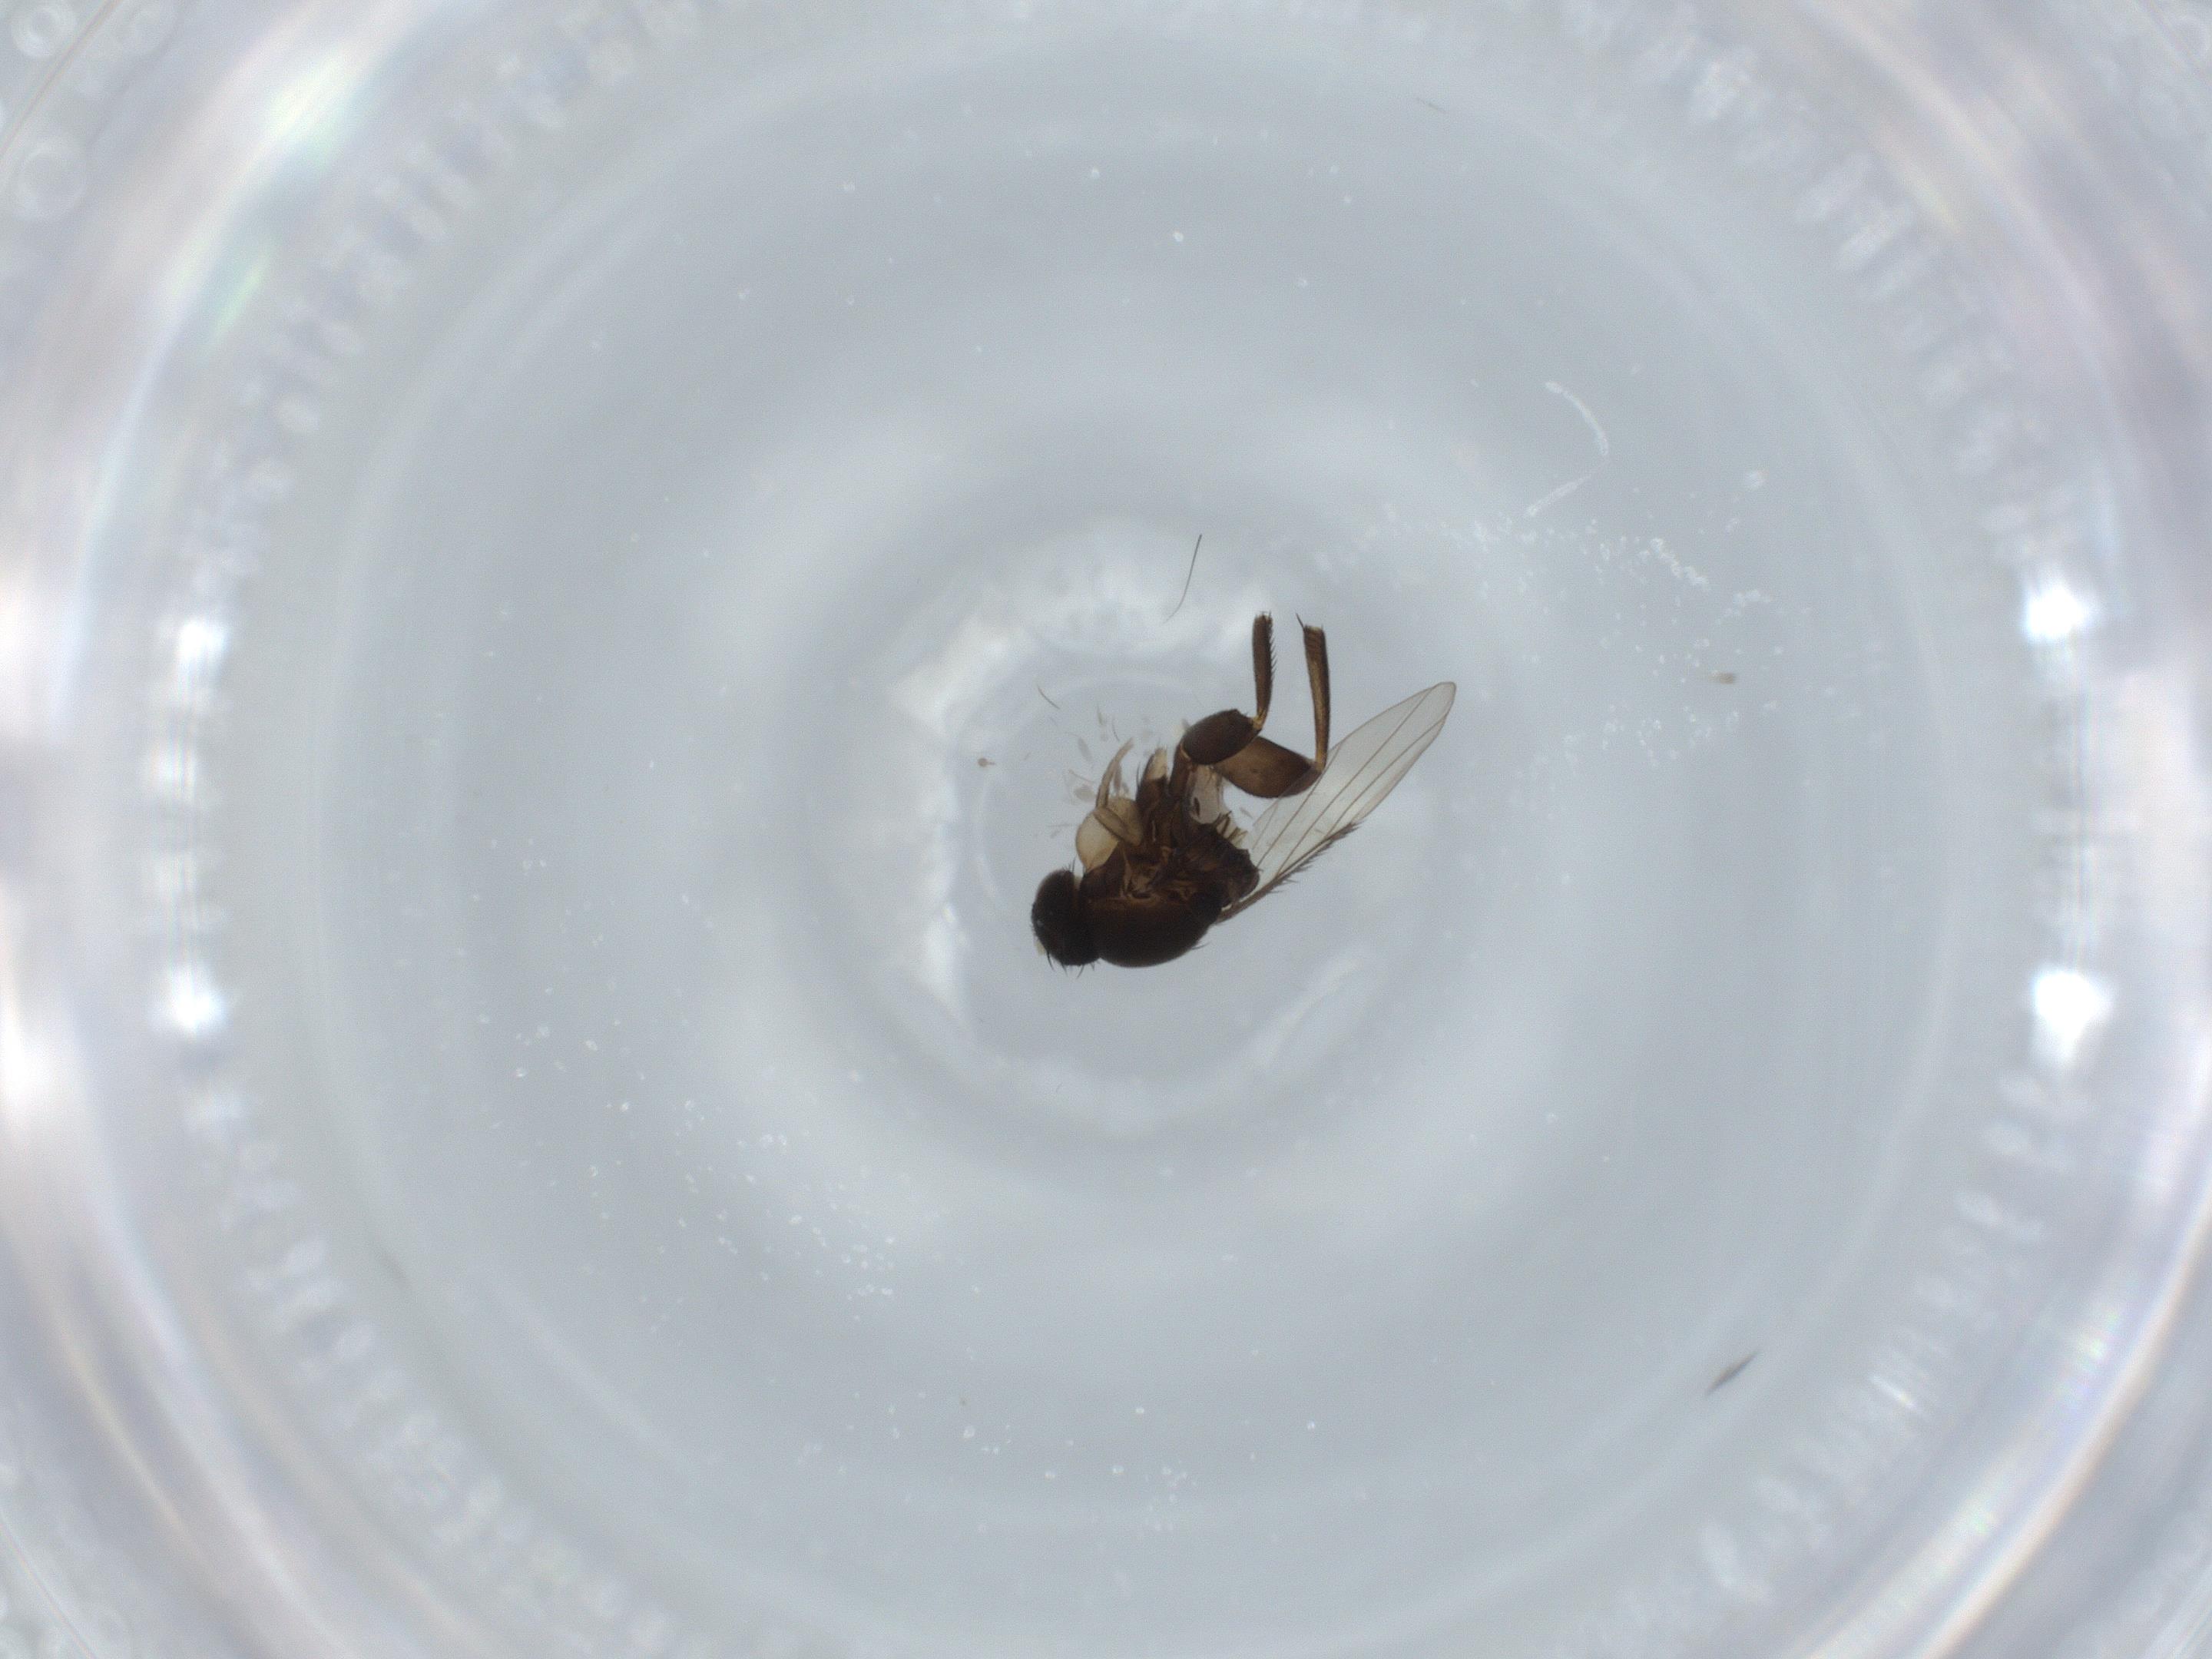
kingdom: Animalia
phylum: Arthropoda
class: Insecta
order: Diptera
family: Phoridae
